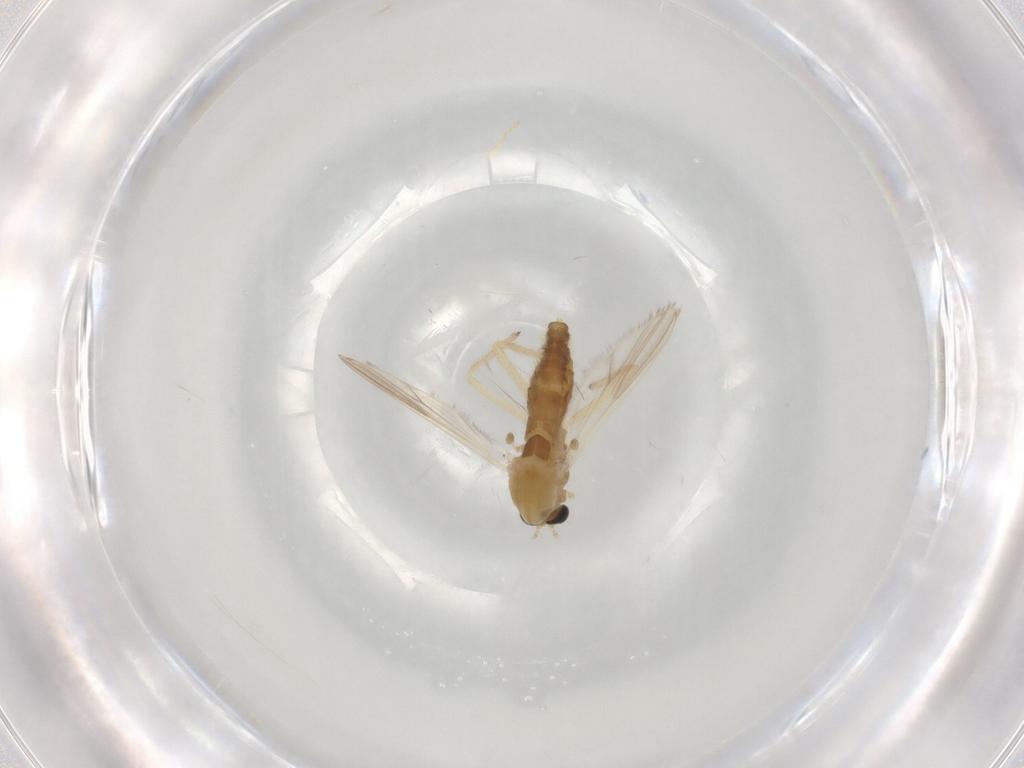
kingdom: Animalia
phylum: Arthropoda
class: Insecta
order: Diptera
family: Chironomidae
